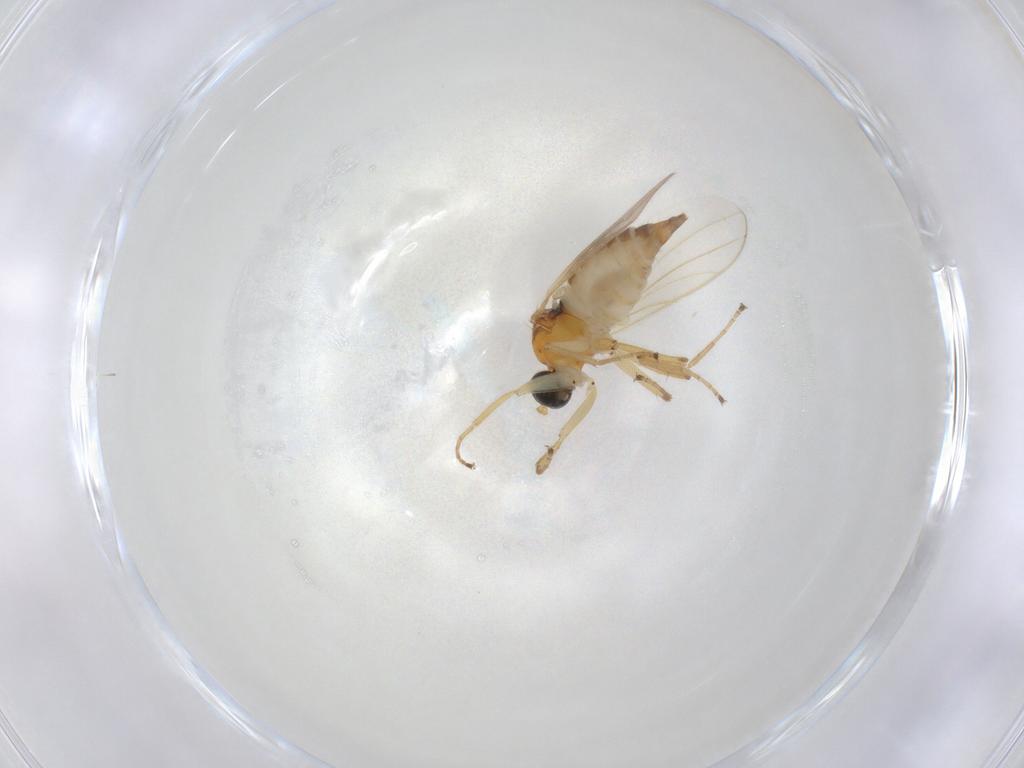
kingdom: Animalia
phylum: Arthropoda
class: Insecta
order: Diptera
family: Hybotidae
